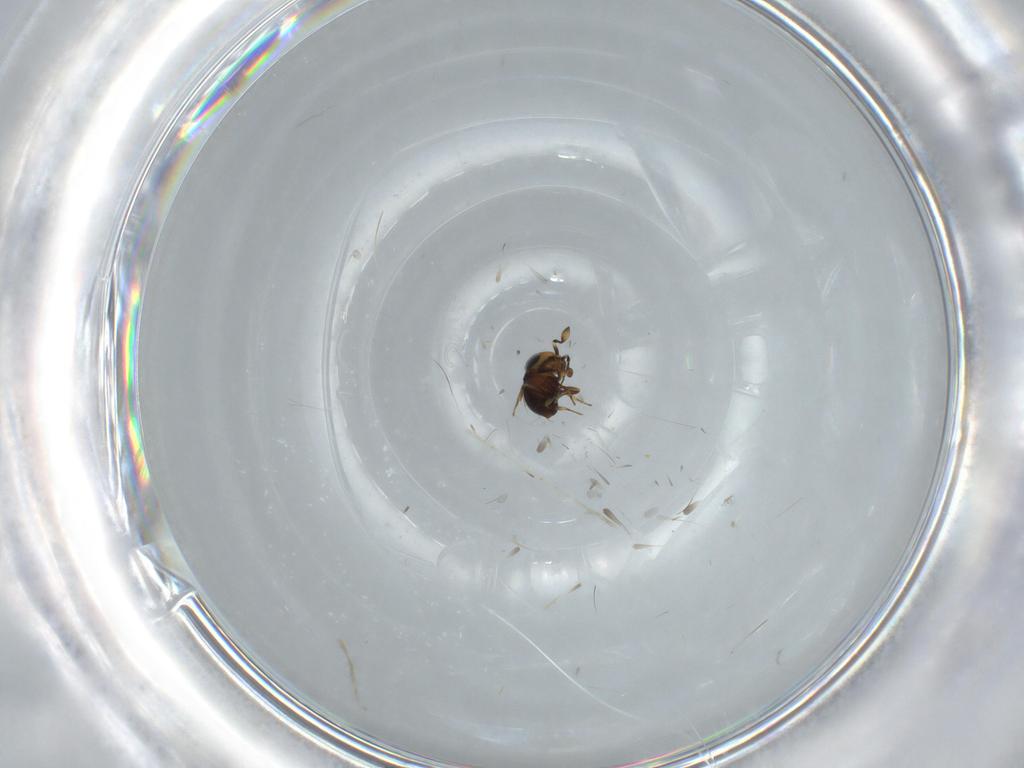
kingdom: Animalia
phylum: Arthropoda
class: Insecta
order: Hymenoptera
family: Scelionidae
